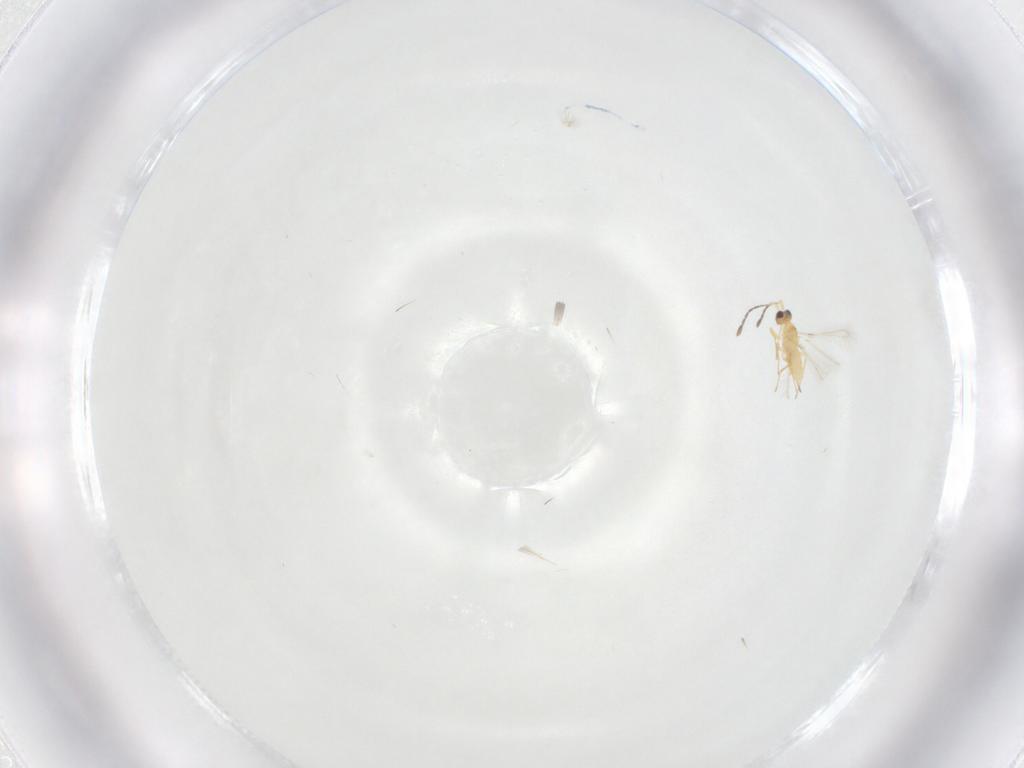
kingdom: Animalia
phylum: Arthropoda
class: Insecta
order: Hymenoptera
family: Mymaridae
